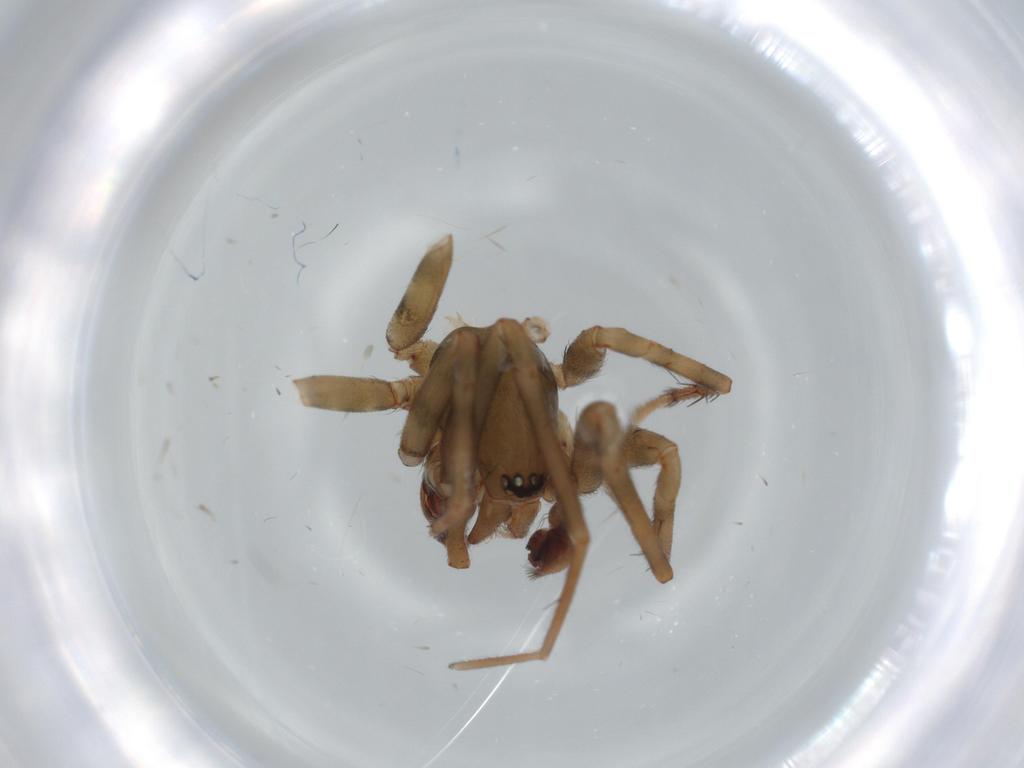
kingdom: Animalia
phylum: Arthropoda
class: Arachnida
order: Araneae
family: Dictynidae
